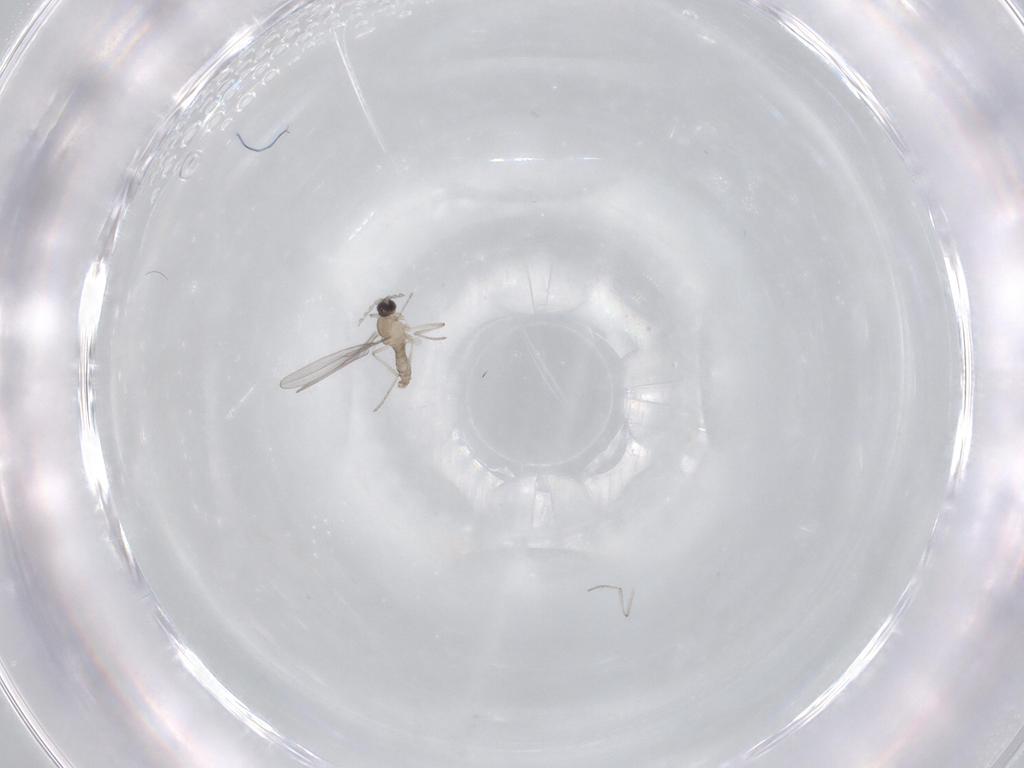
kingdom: Animalia
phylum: Arthropoda
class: Insecta
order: Diptera
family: Cecidomyiidae
